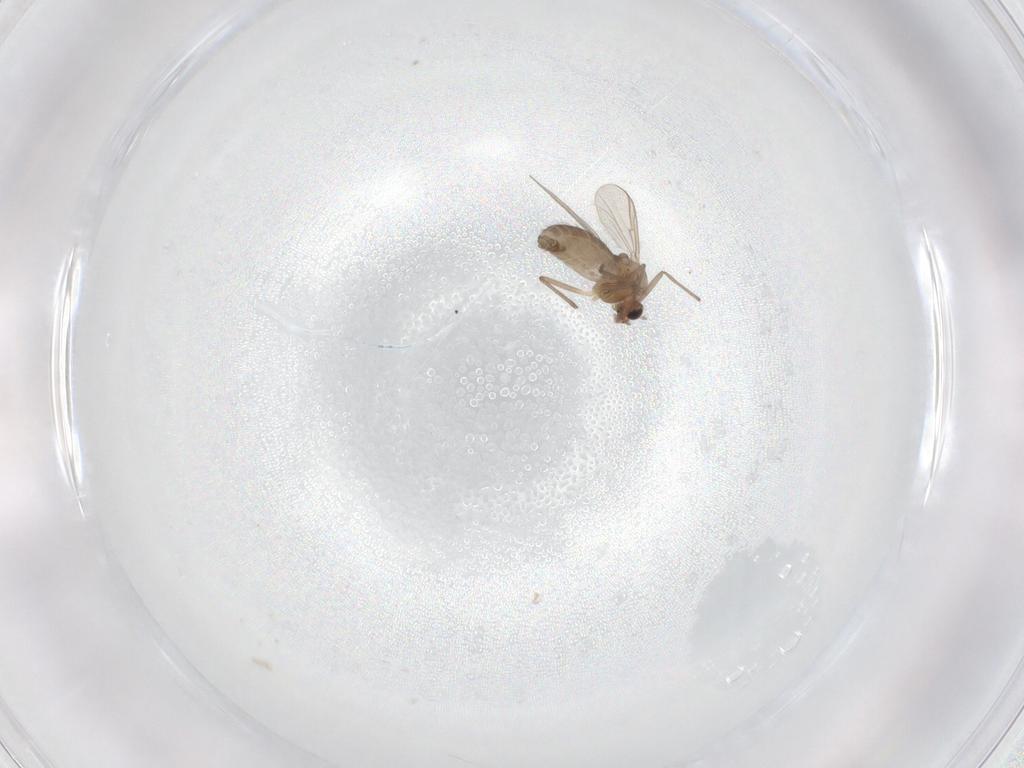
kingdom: Animalia
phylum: Arthropoda
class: Insecta
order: Diptera
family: Chironomidae
